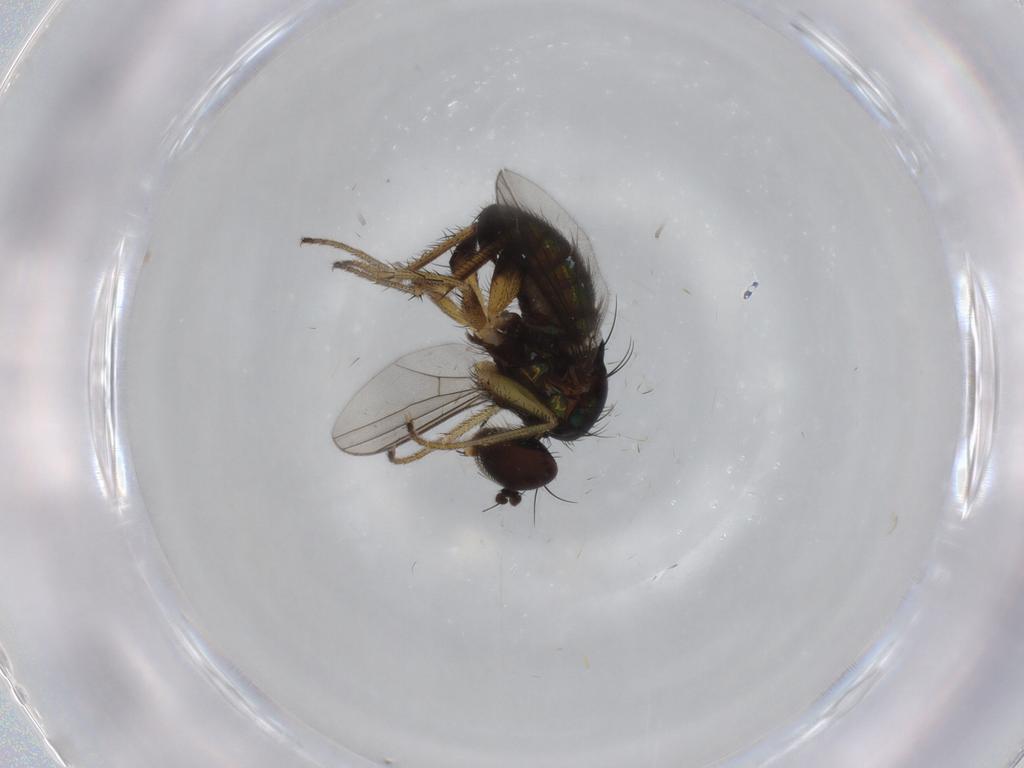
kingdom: Animalia
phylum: Arthropoda
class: Insecta
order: Diptera
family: Dolichopodidae
